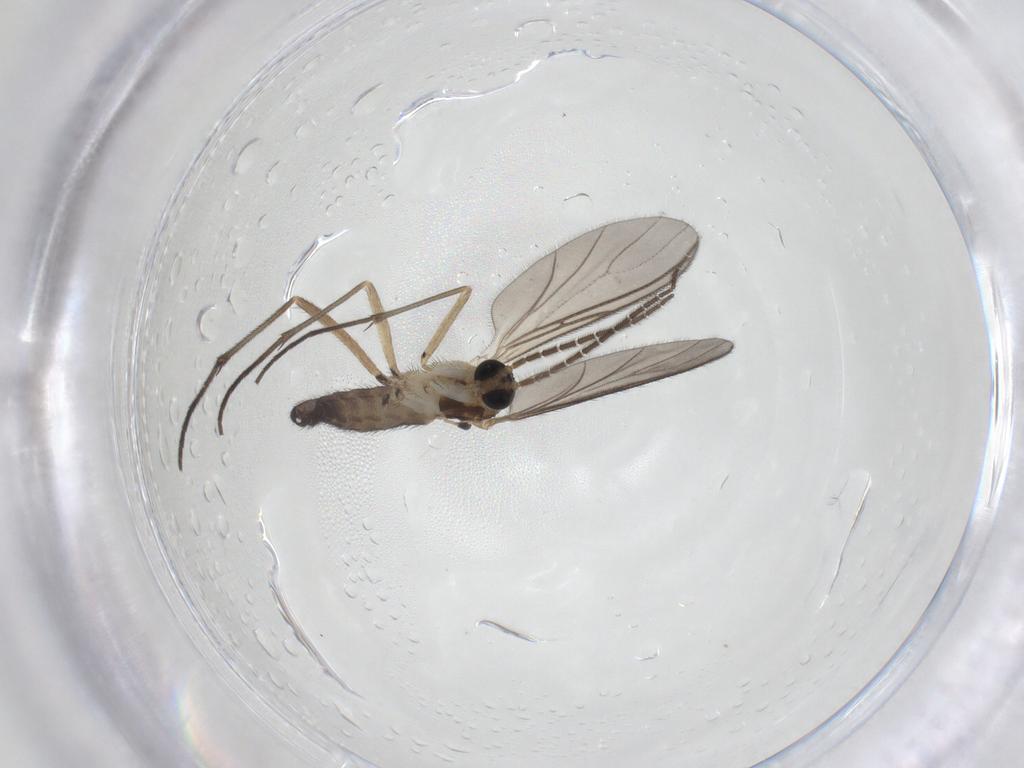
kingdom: Animalia
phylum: Arthropoda
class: Insecta
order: Diptera
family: Sciaridae
